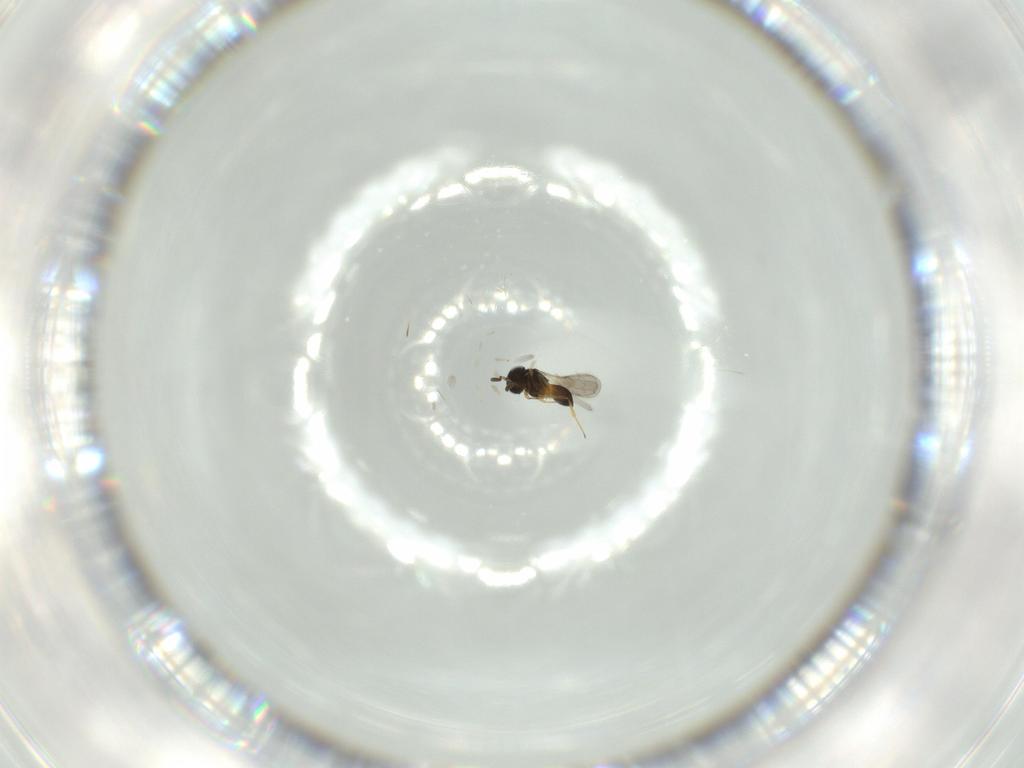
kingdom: Animalia
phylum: Arthropoda
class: Insecta
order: Hymenoptera
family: Scelionidae
